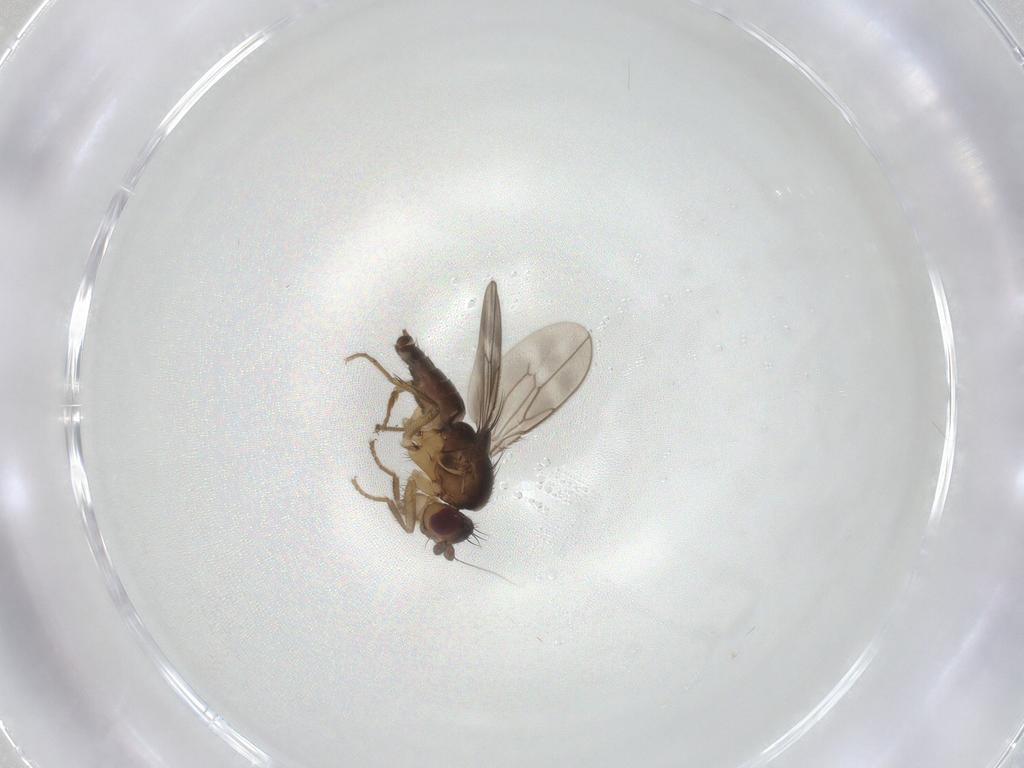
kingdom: Animalia
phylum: Arthropoda
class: Insecta
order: Diptera
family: Sphaeroceridae
